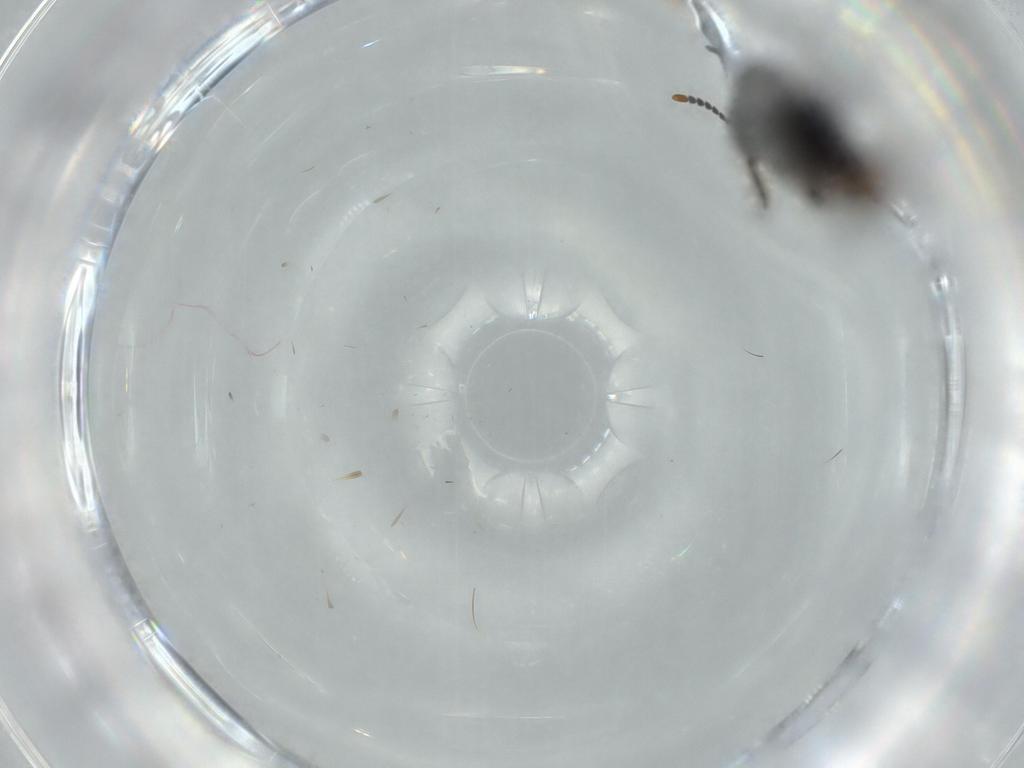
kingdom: Animalia
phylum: Arthropoda
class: Insecta
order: Coleoptera
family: Staphylinidae
